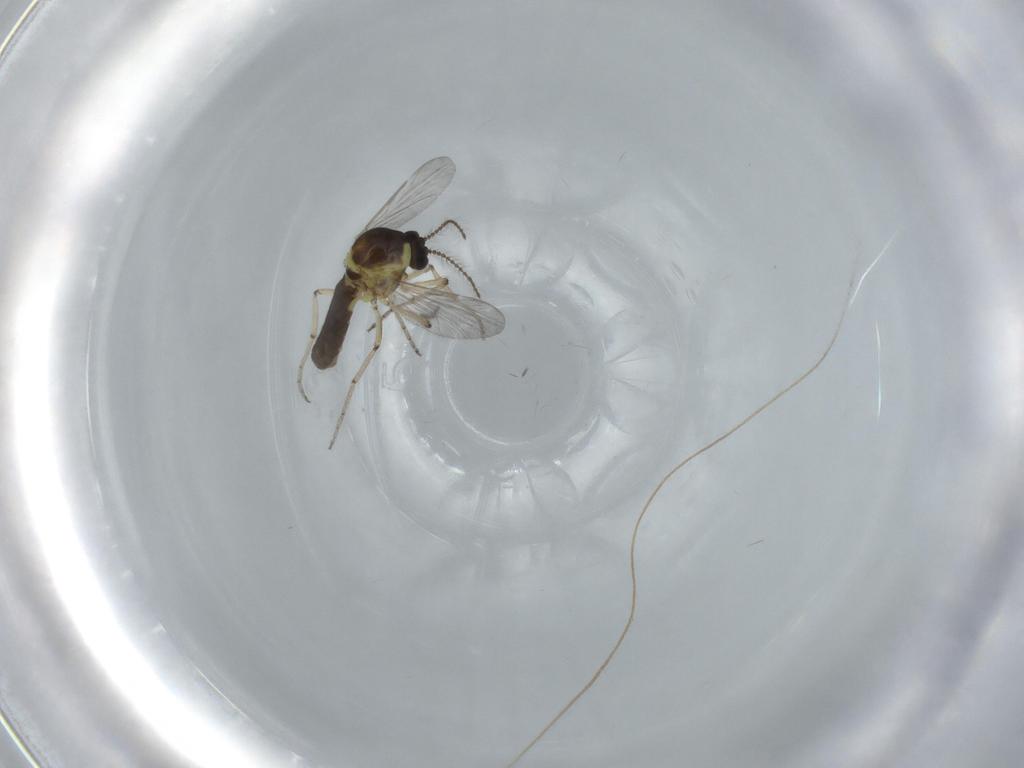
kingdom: Animalia
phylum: Arthropoda
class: Insecta
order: Diptera
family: Ceratopogonidae
